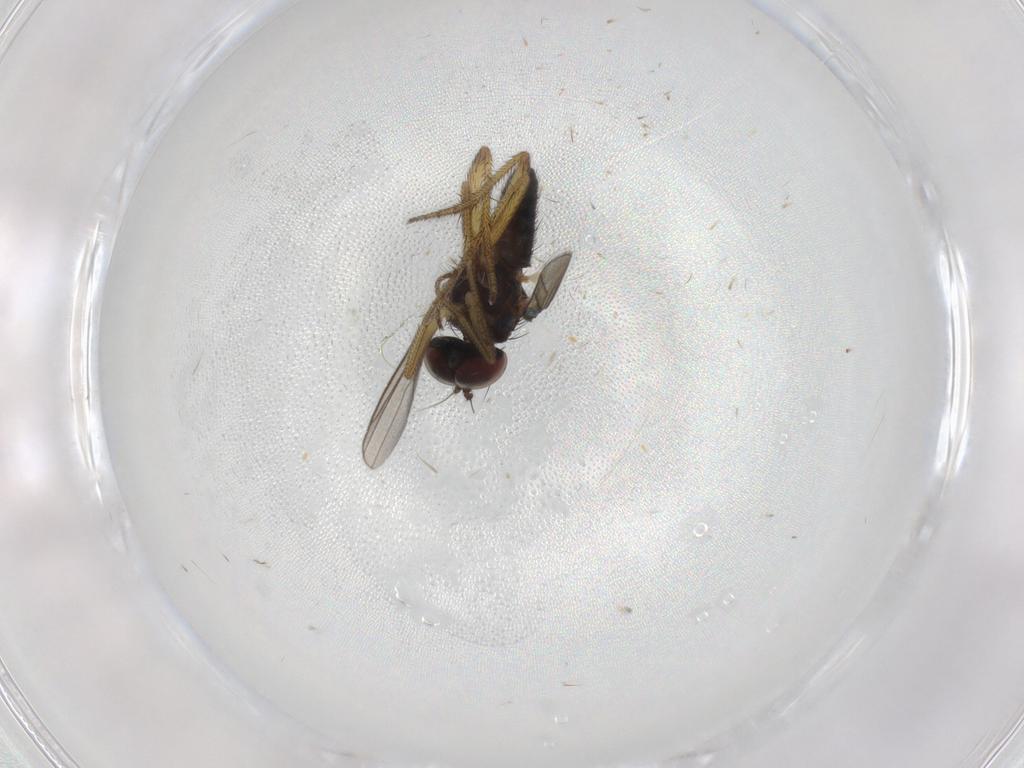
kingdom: Animalia
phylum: Arthropoda
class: Insecta
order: Diptera
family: Dolichopodidae
